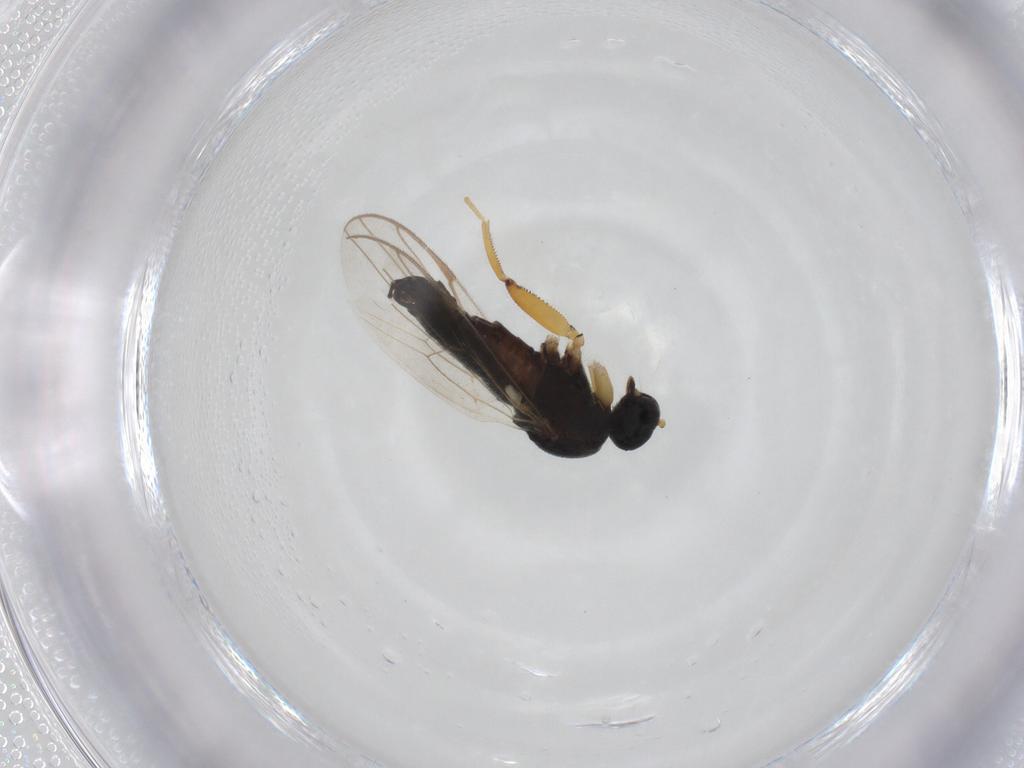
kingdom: Animalia
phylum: Arthropoda
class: Insecta
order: Diptera
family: Hybotidae
